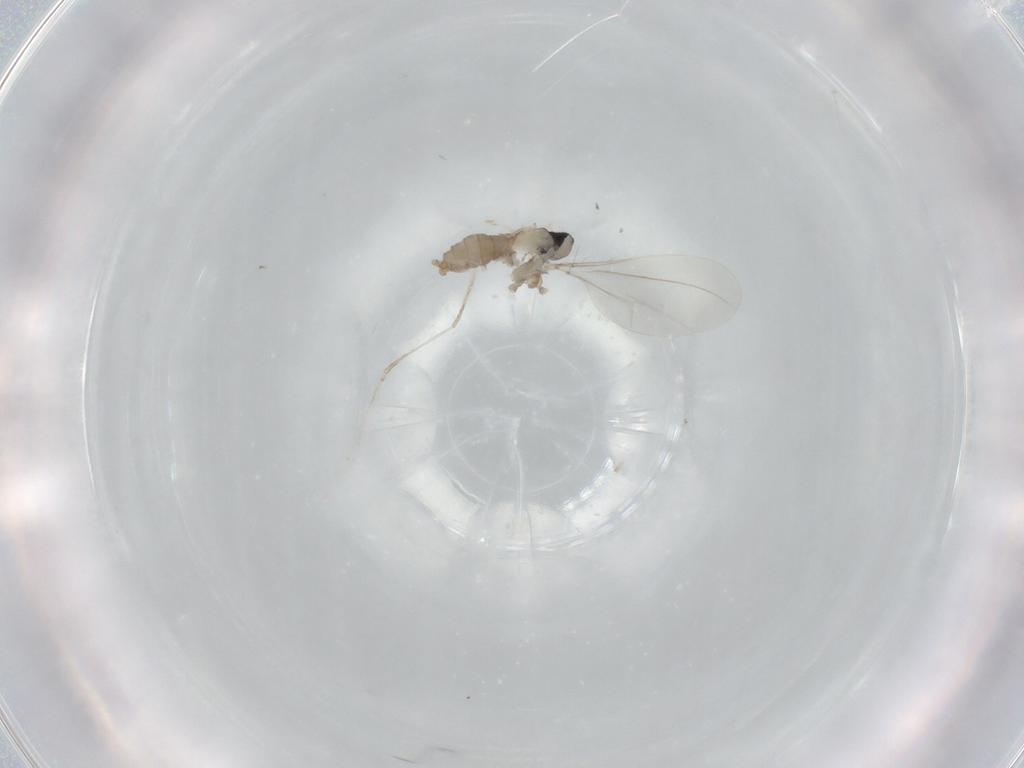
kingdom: Animalia
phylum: Arthropoda
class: Insecta
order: Diptera
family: Cecidomyiidae
